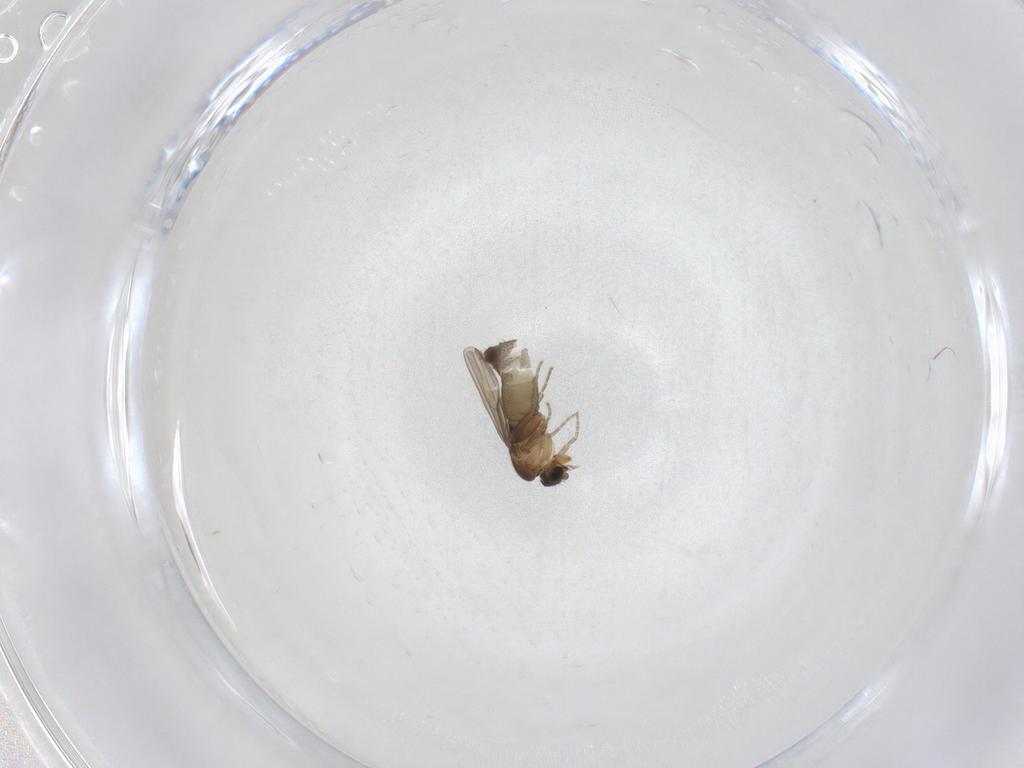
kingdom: Animalia
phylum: Arthropoda
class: Insecta
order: Diptera
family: Phoridae
